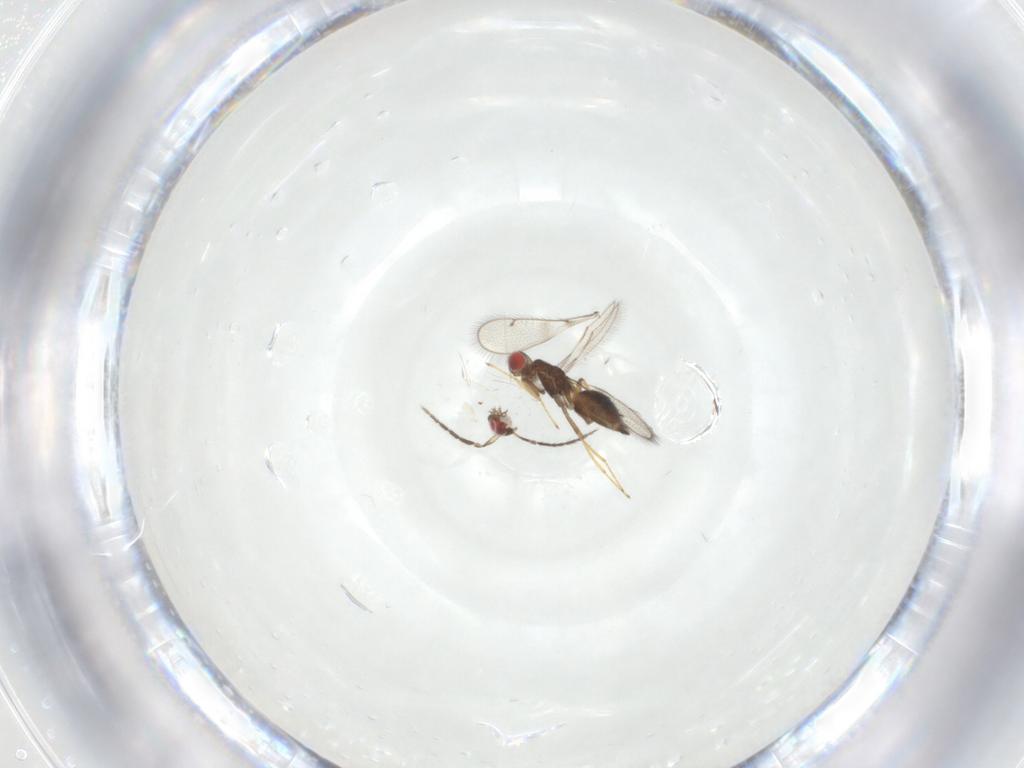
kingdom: Animalia
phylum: Arthropoda
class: Insecta
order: Hymenoptera
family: Eulophidae
